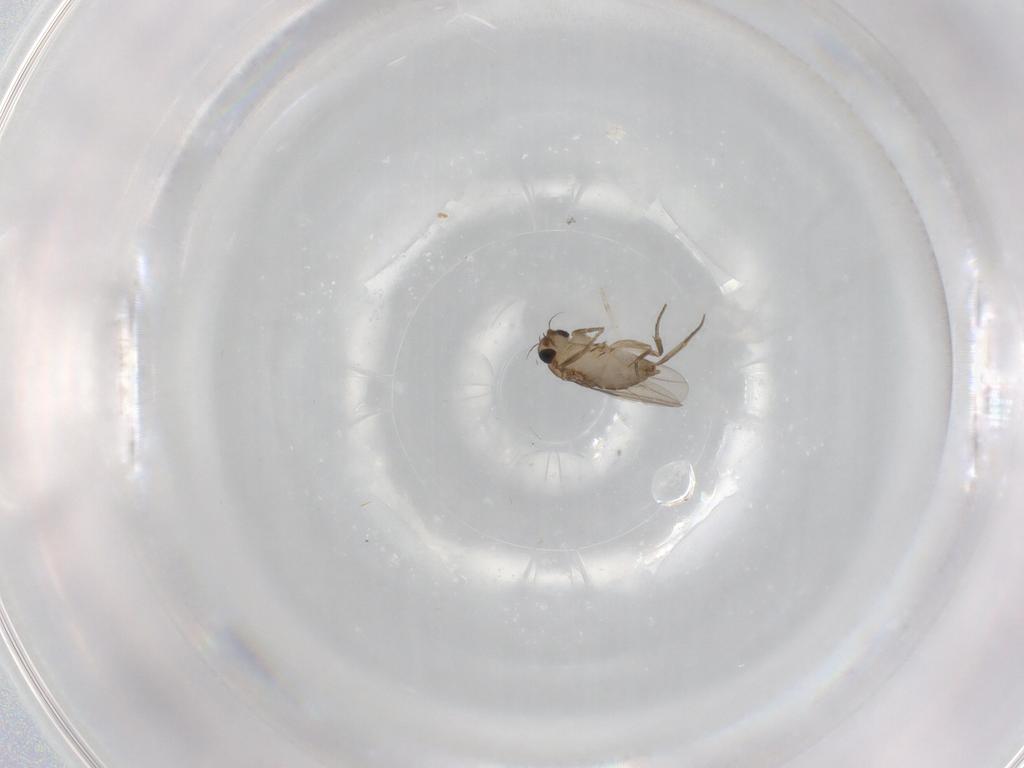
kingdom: Animalia
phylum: Arthropoda
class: Insecta
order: Diptera
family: Phoridae
